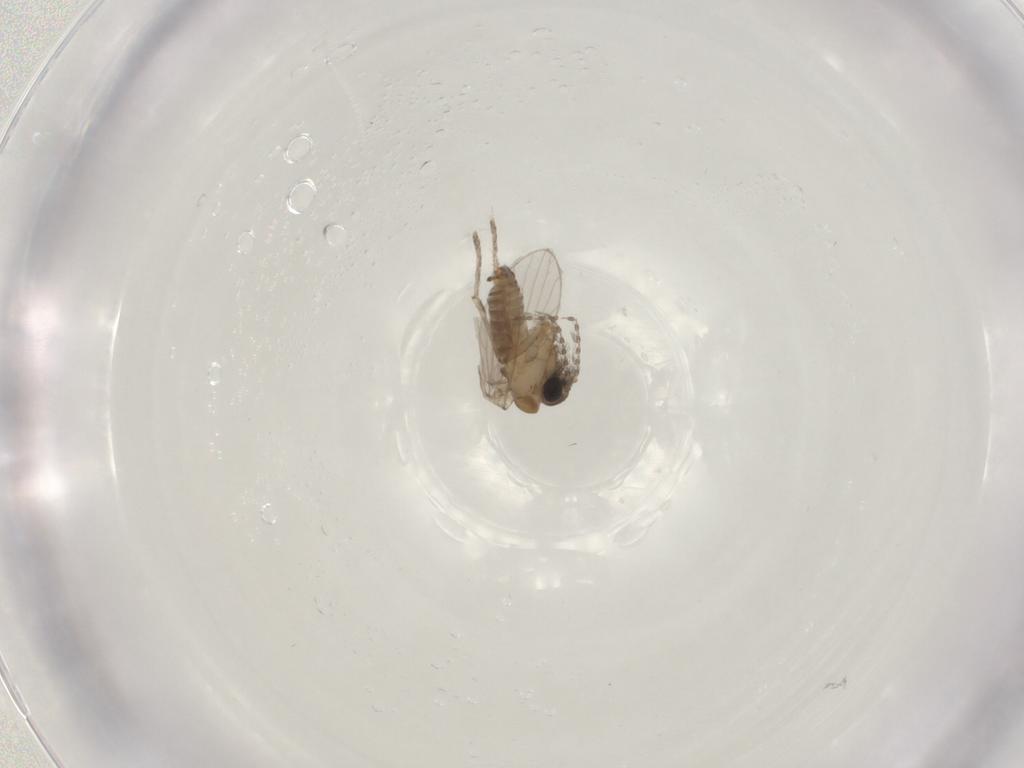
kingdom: Animalia
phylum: Arthropoda
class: Insecta
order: Diptera
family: Psychodidae
